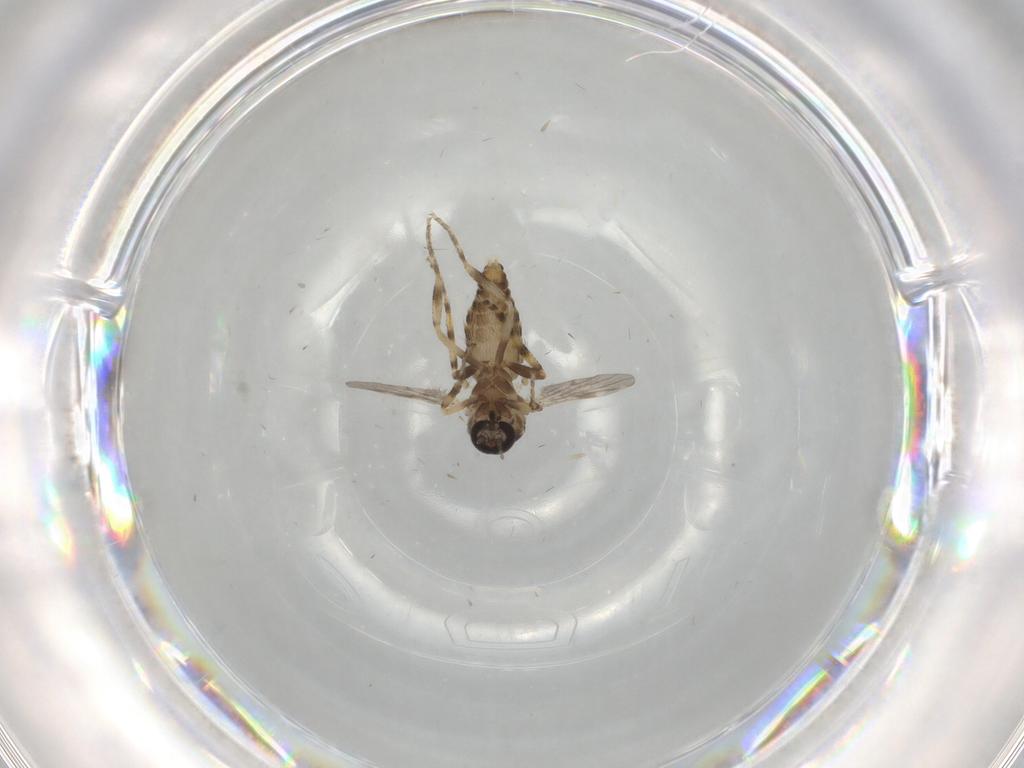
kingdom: Animalia
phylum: Arthropoda
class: Insecta
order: Diptera
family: Ceratopogonidae
